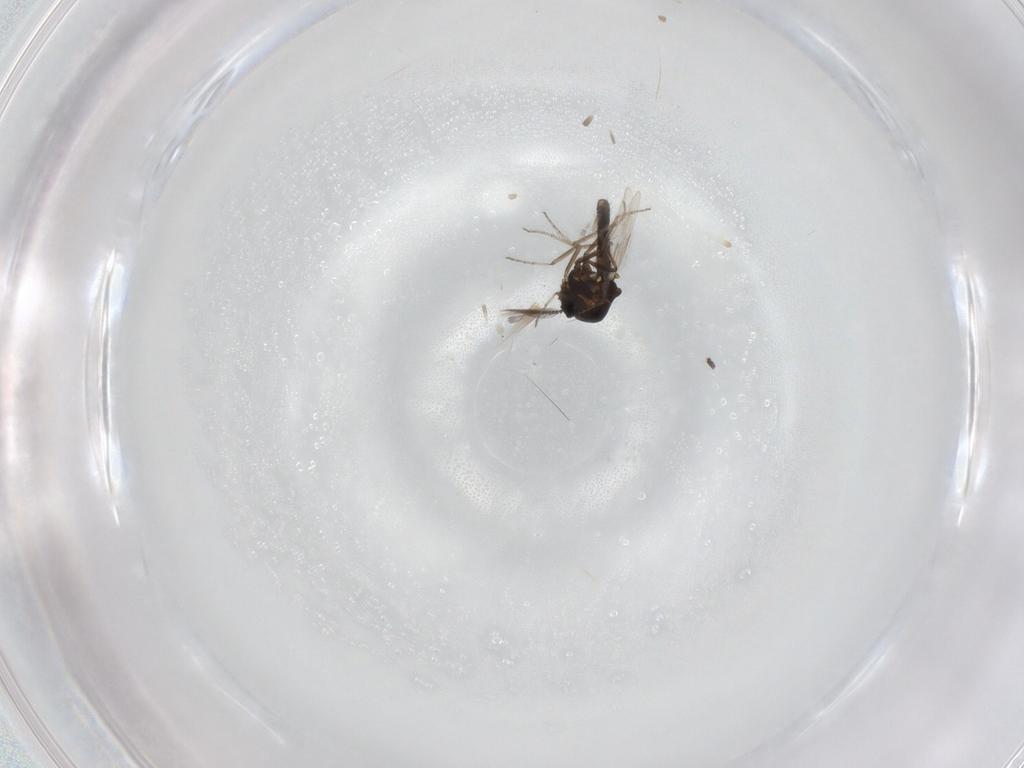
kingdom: Animalia
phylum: Arthropoda
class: Insecta
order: Diptera
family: Ceratopogonidae
